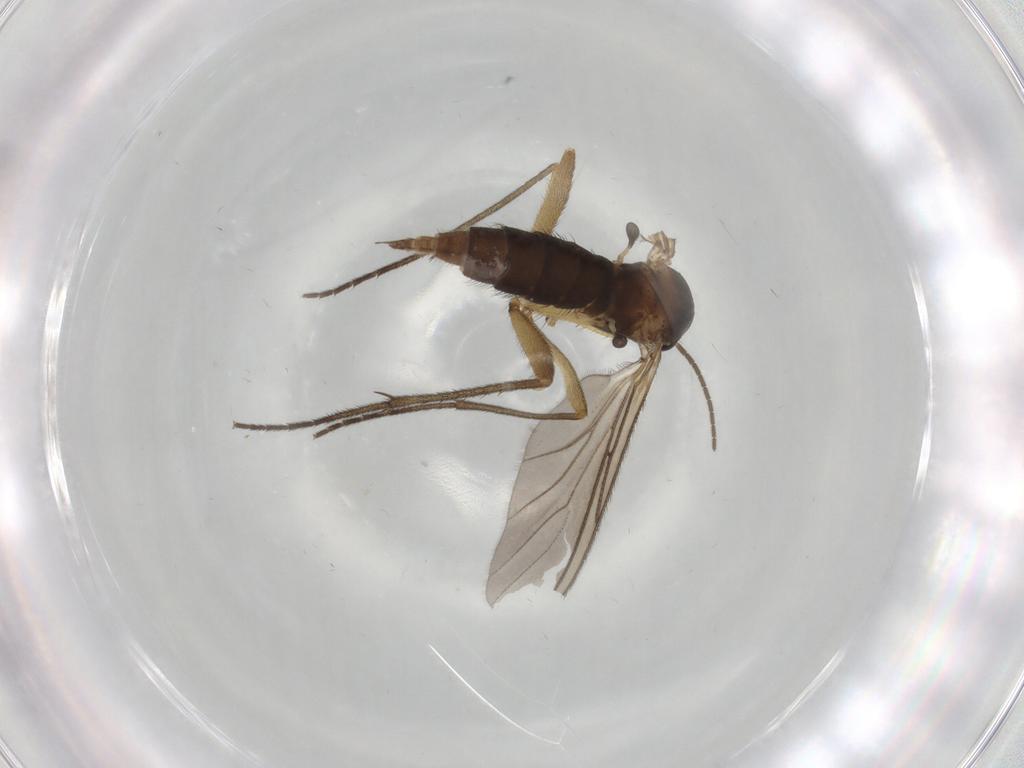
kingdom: Animalia
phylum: Arthropoda
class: Insecta
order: Diptera
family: Sciaridae
